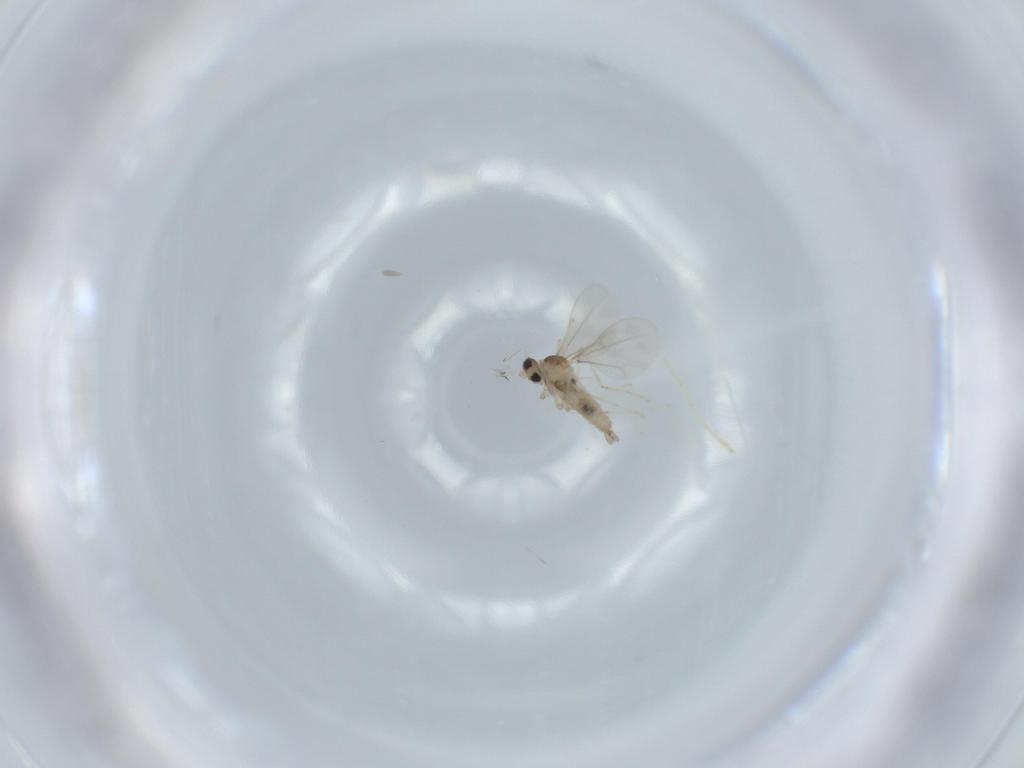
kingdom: Animalia
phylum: Arthropoda
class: Insecta
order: Diptera
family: Cecidomyiidae
